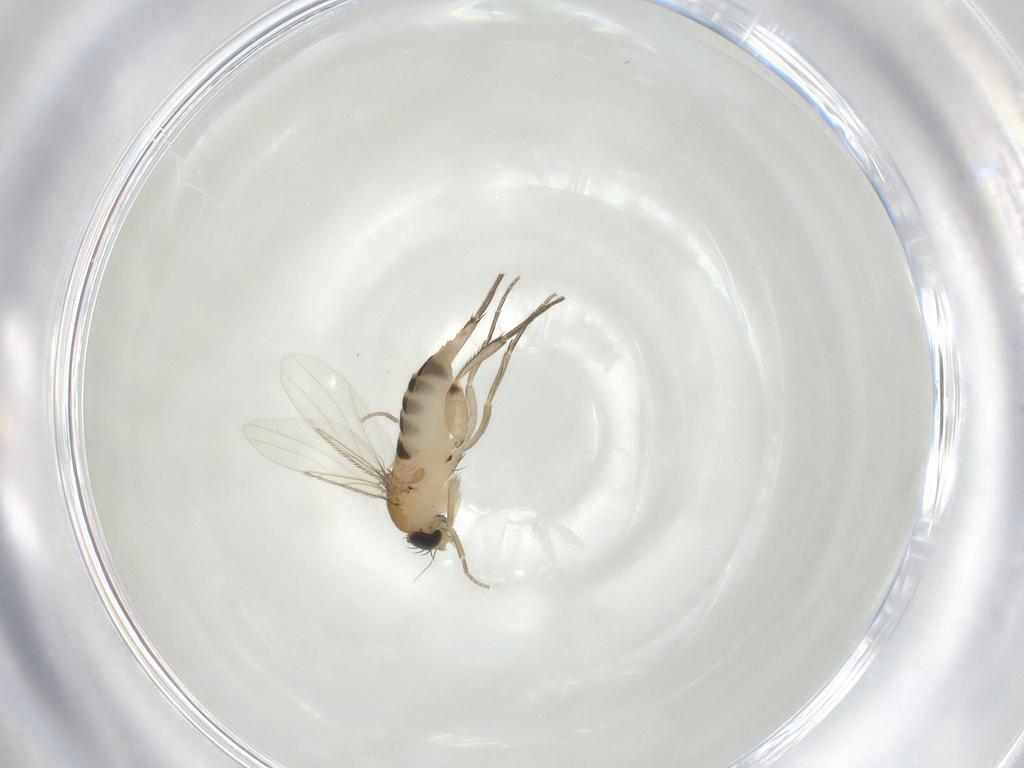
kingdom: Animalia
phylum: Arthropoda
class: Insecta
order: Diptera
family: Chironomidae
